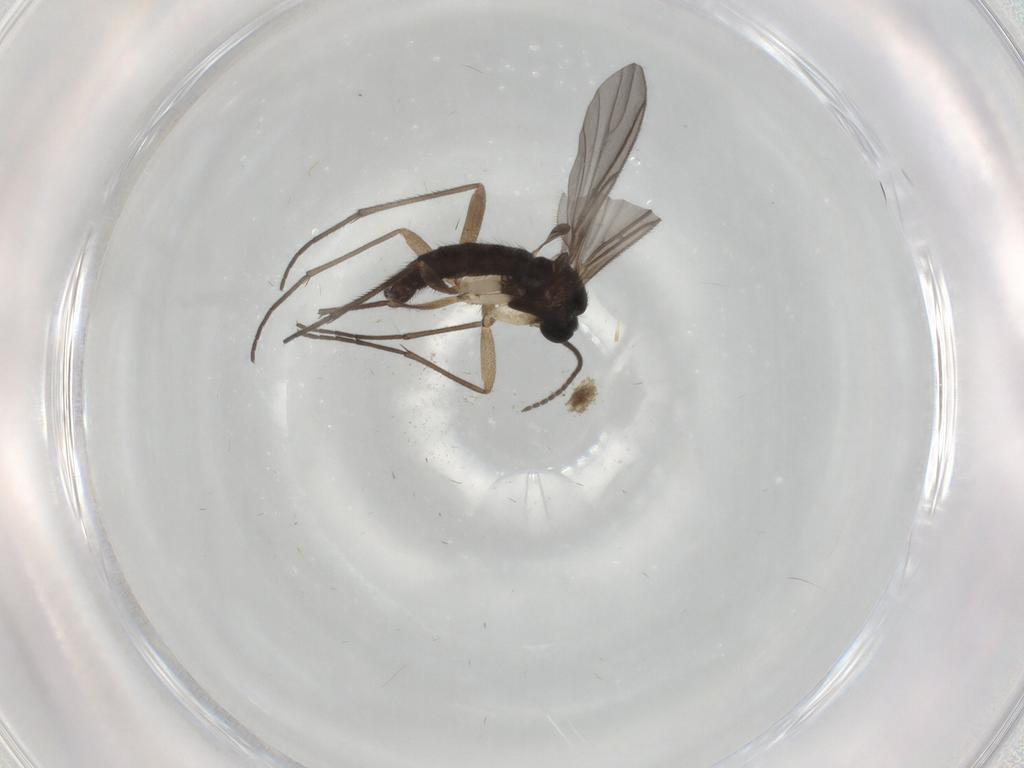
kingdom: Animalia
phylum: Arthropoda
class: Insecta
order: Diptera
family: Sciaridae
